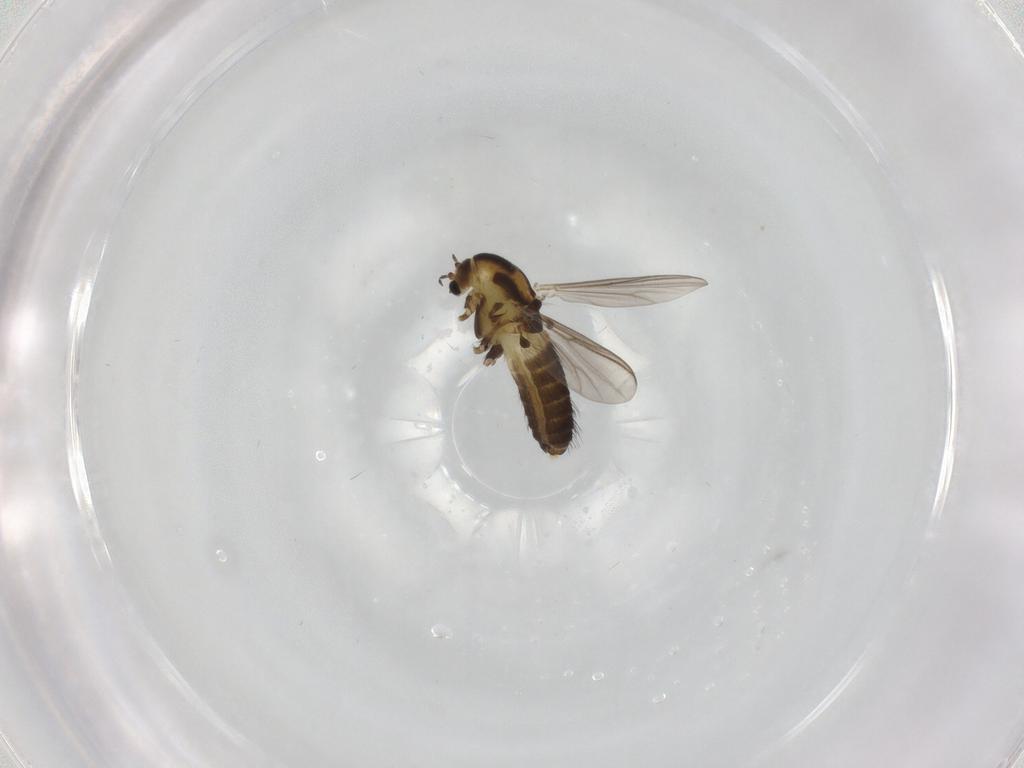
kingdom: Animalia
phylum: Arthropoda
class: Insecta
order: Diptera
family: Chironomidae
